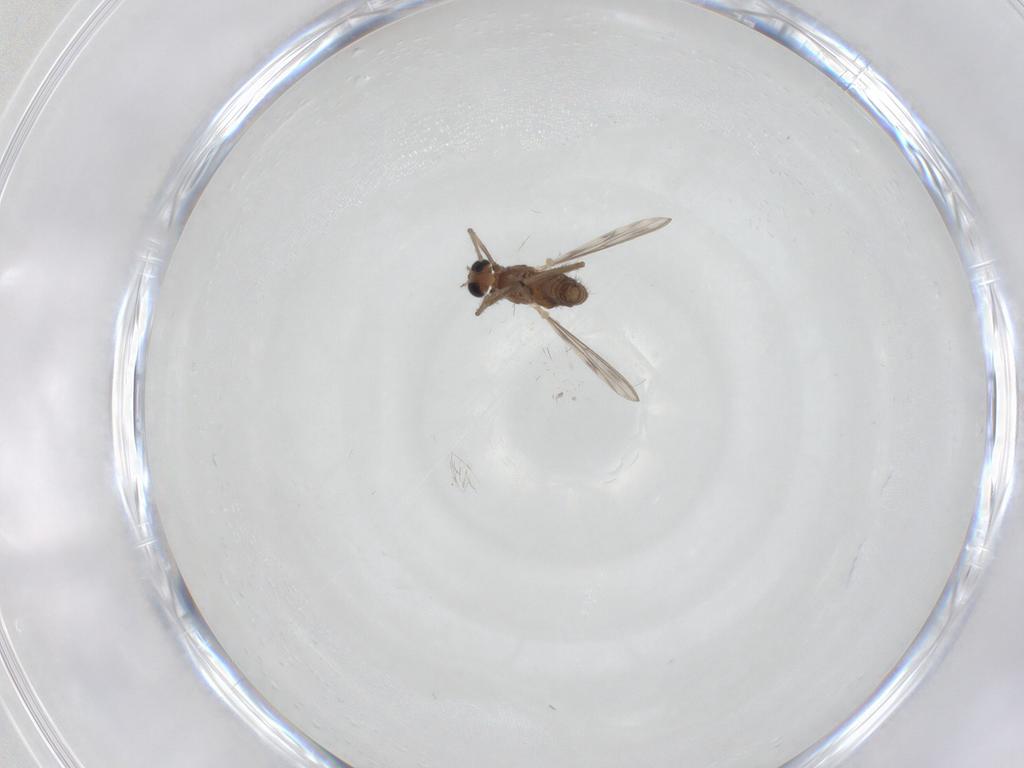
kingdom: Animalia
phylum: Arthropoda
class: Insecta
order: Diptera
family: Chironomidae
